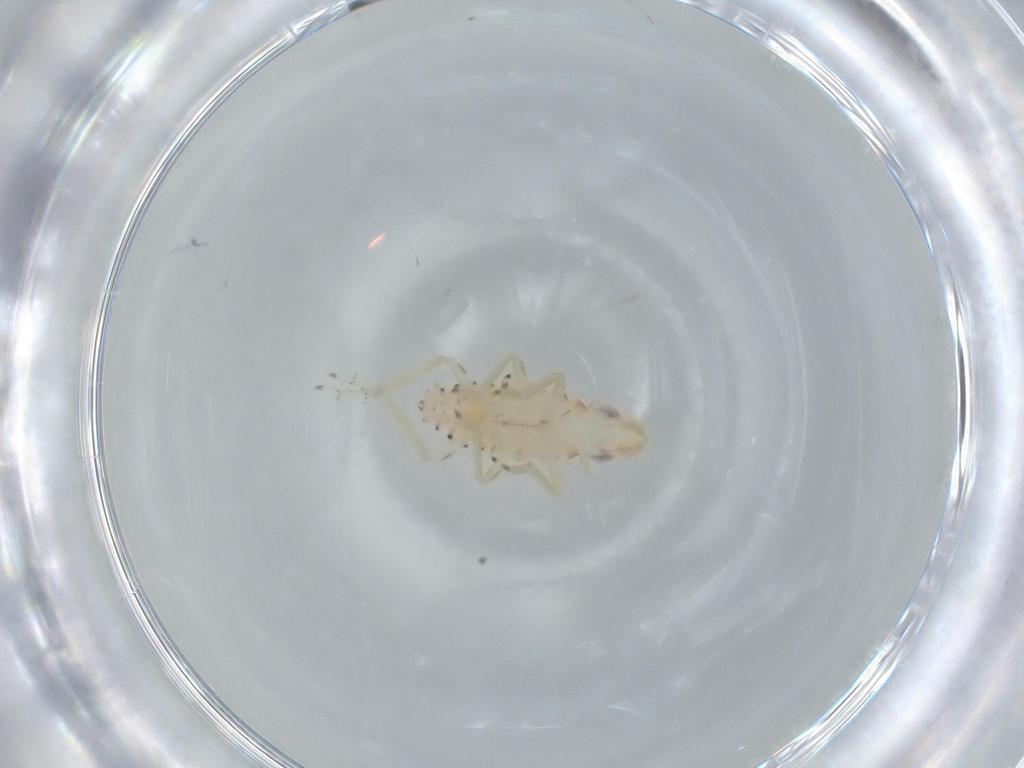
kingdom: Animalia
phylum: Arthropoda
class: Insecta
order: Hemiptera
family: Tropiduchidae
